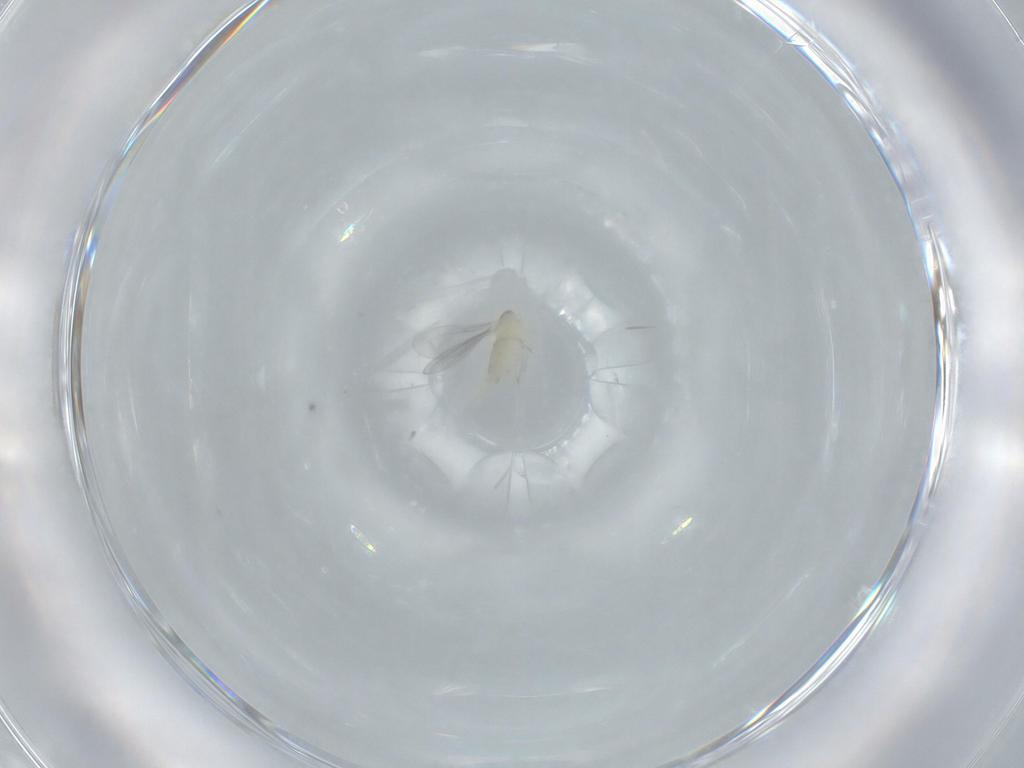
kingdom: Animalia
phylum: Arthropoda
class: Insecta
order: Diptera
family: Cecidomyiidae
